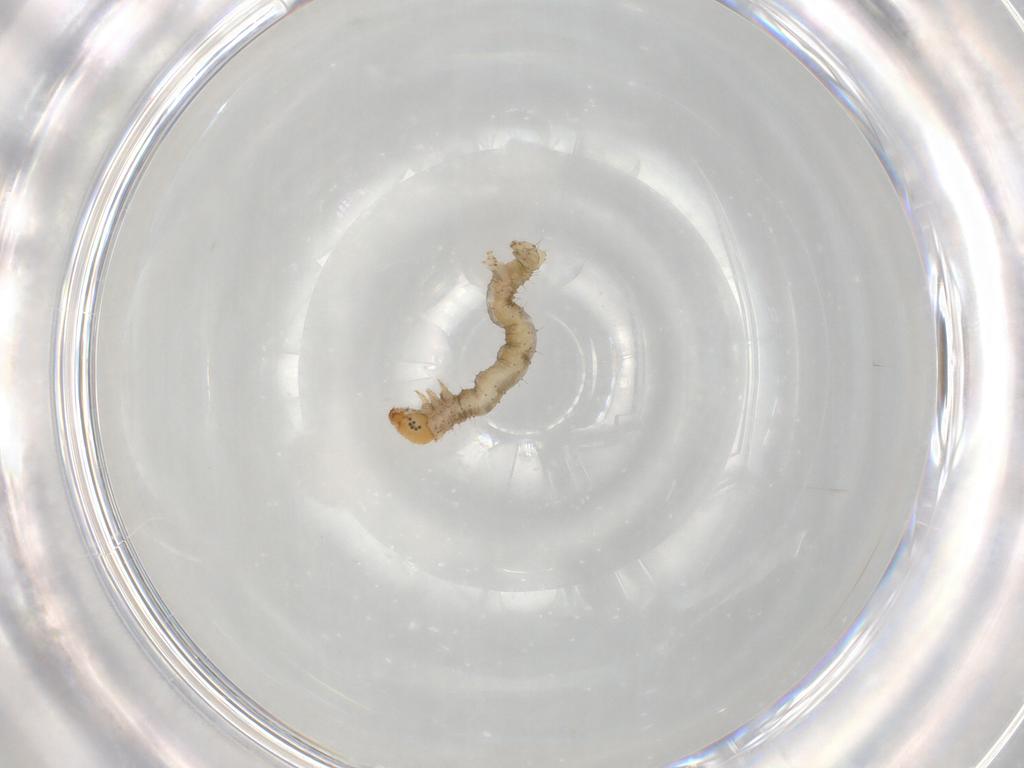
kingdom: Animalia
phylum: Arthropoda
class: Insecta
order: Lepidoptera
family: Geometridae
